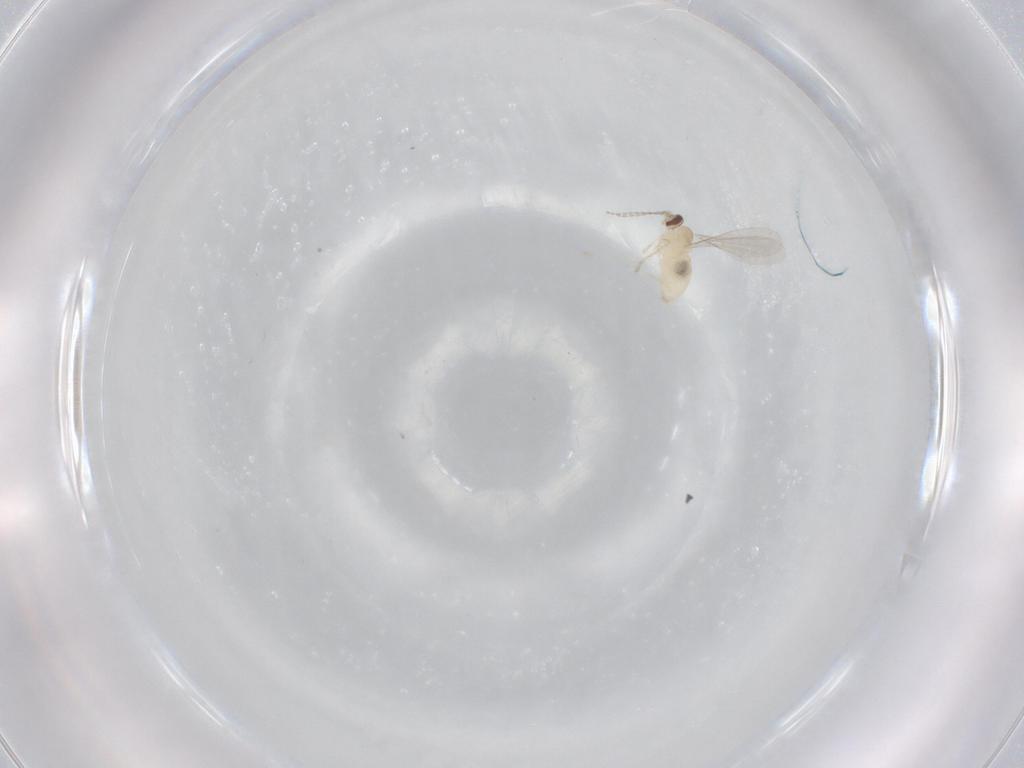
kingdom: Animalia
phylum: Arthropoda
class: Insecta
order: Diptera
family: Cecidomyiidae
